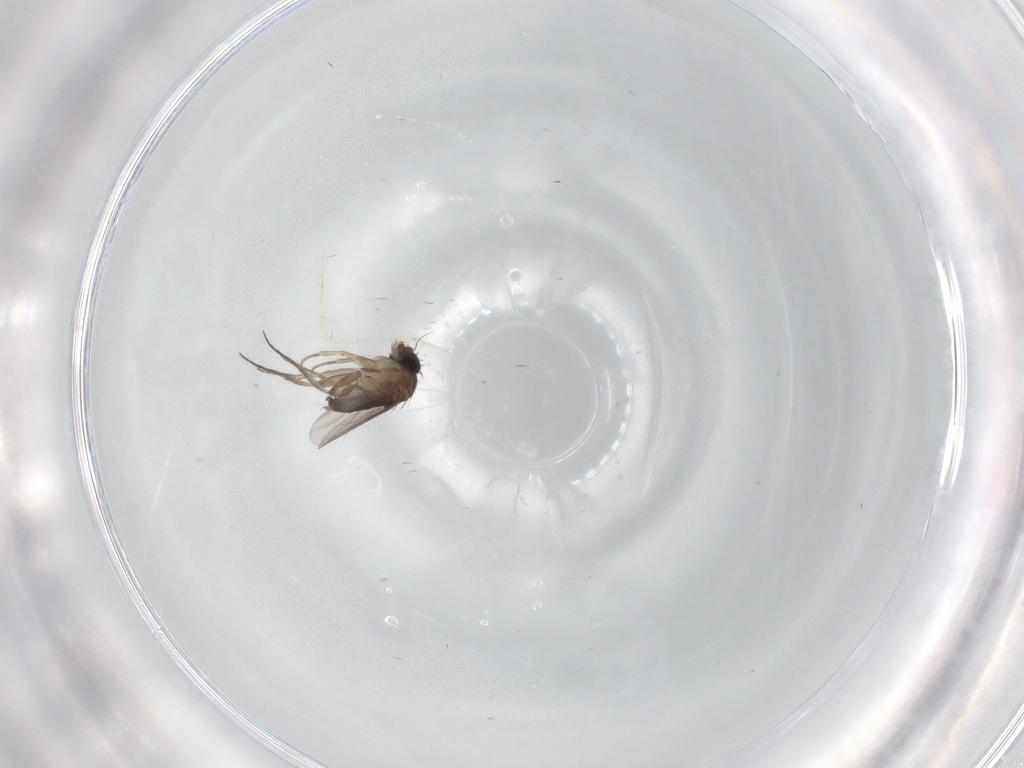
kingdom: Animalia
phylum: Arthropoda
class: Insecta
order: Diptera
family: Phoridae
